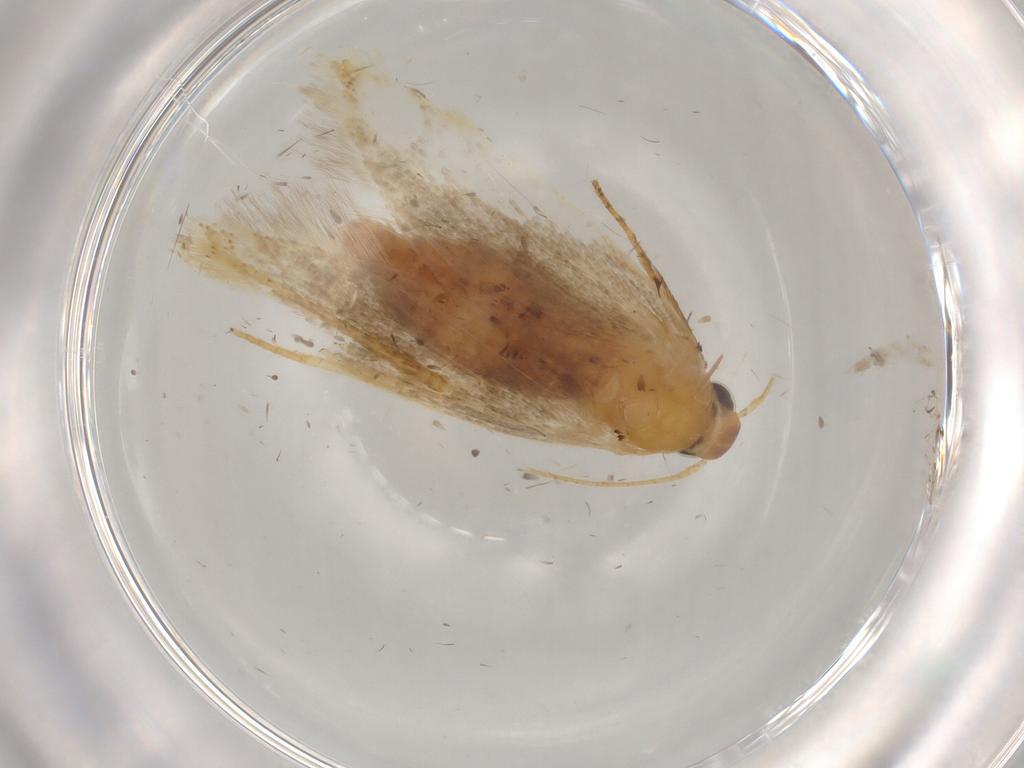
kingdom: Animalia
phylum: Arthropoda
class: Insecta
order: Lepidoptera
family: Autostichidae
